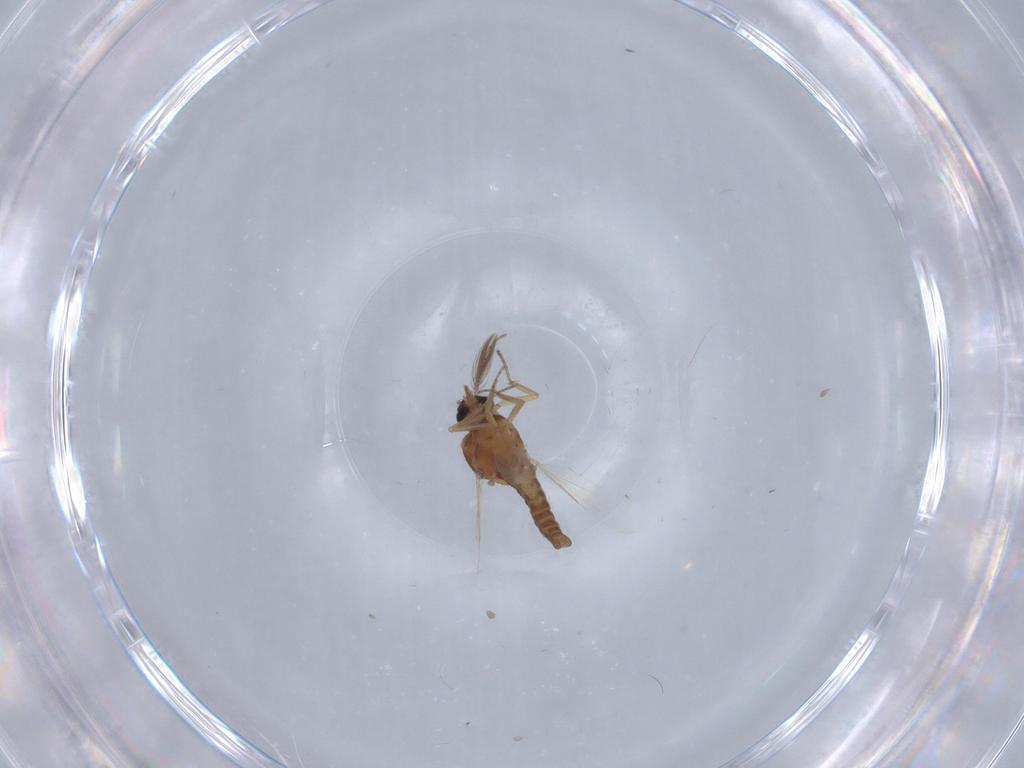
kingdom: Animalia
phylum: Arthropoda
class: Insecta
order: Diptera
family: Ceratopogonidae
